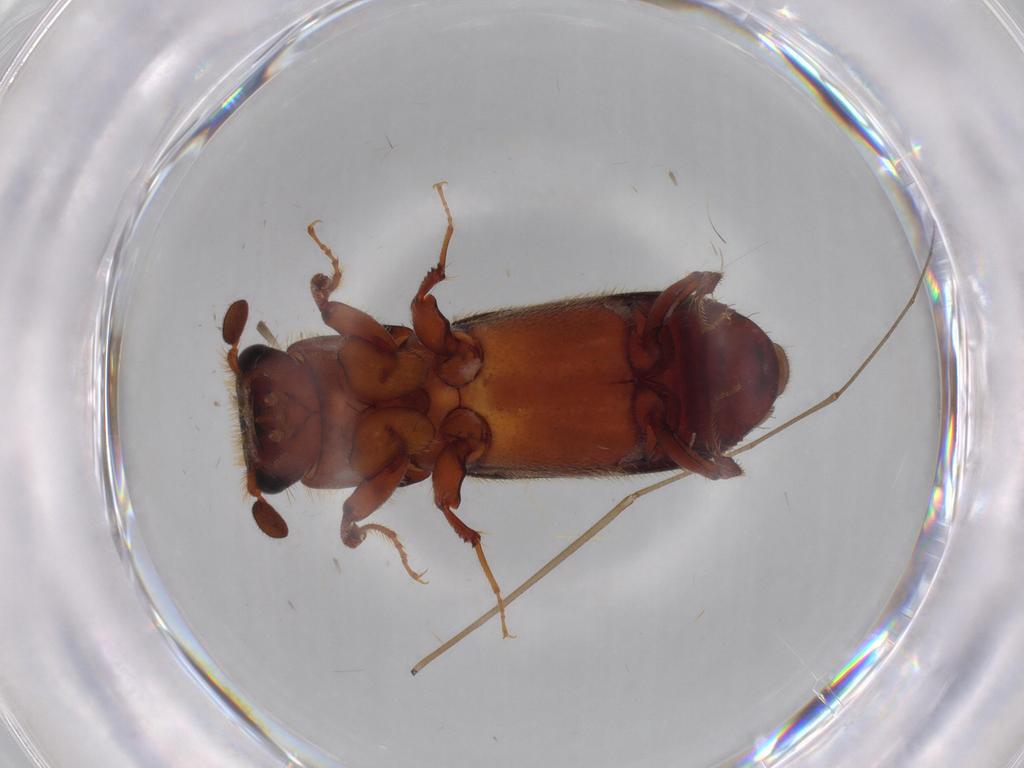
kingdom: Animalia
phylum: Arthropoda
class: Insecta
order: Coleoptera
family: Curculionidae
